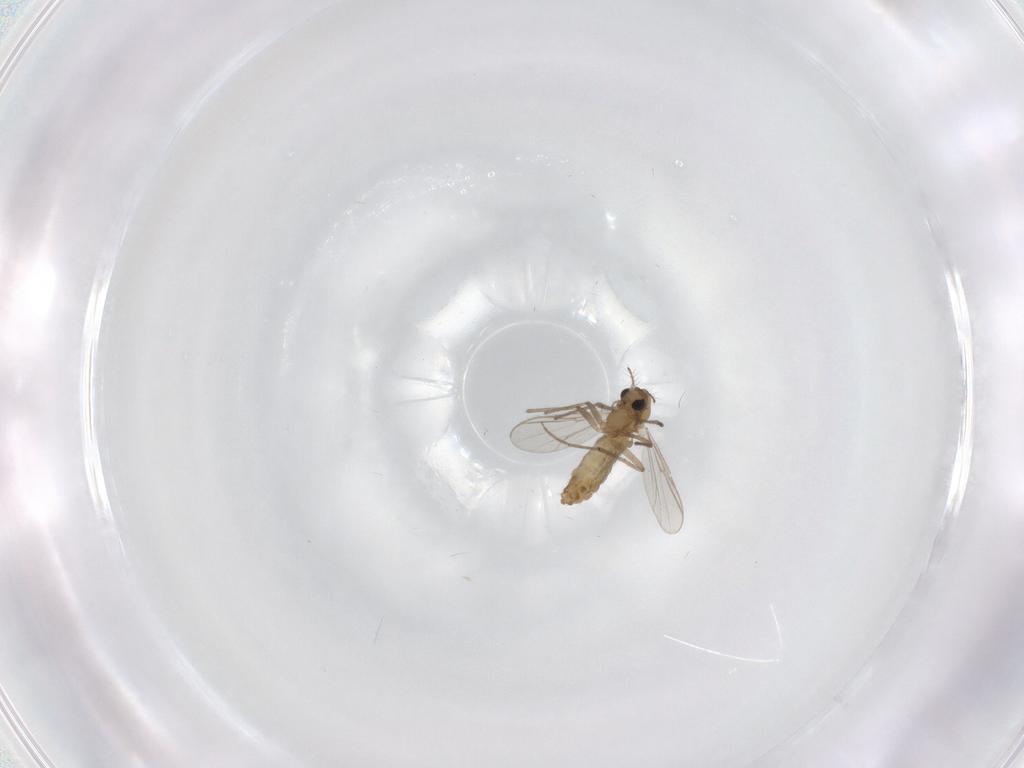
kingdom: Animalia
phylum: Arthropoda
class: Insecta
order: Diptera
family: Chironomidae
